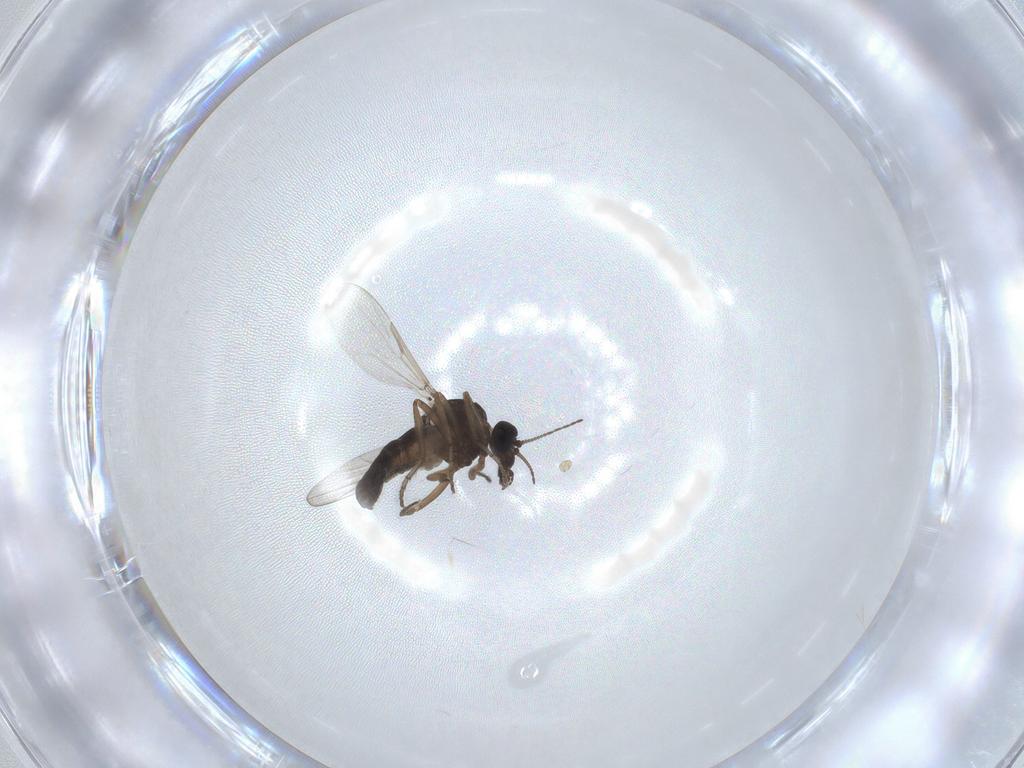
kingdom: Animalia
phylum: Arthropoda
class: Insecta
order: Diptera
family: Ceratopogonidae
